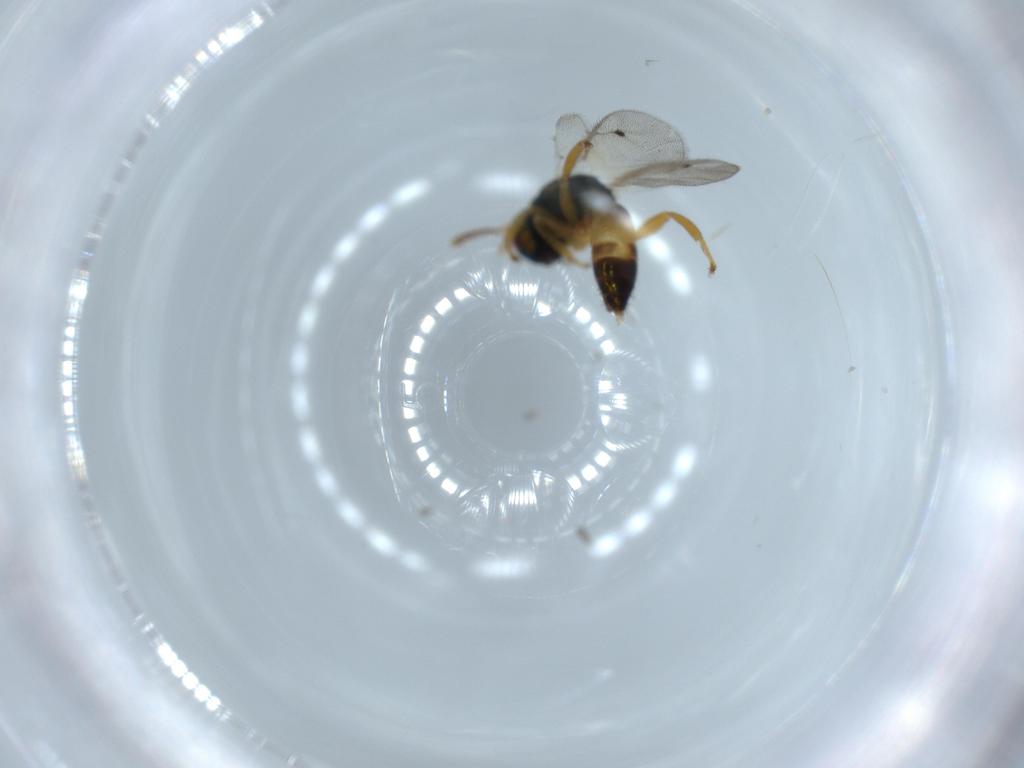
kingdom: Animalia
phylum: Arthropoda
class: Insecta
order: Hymenoptera
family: Pteromalidae
